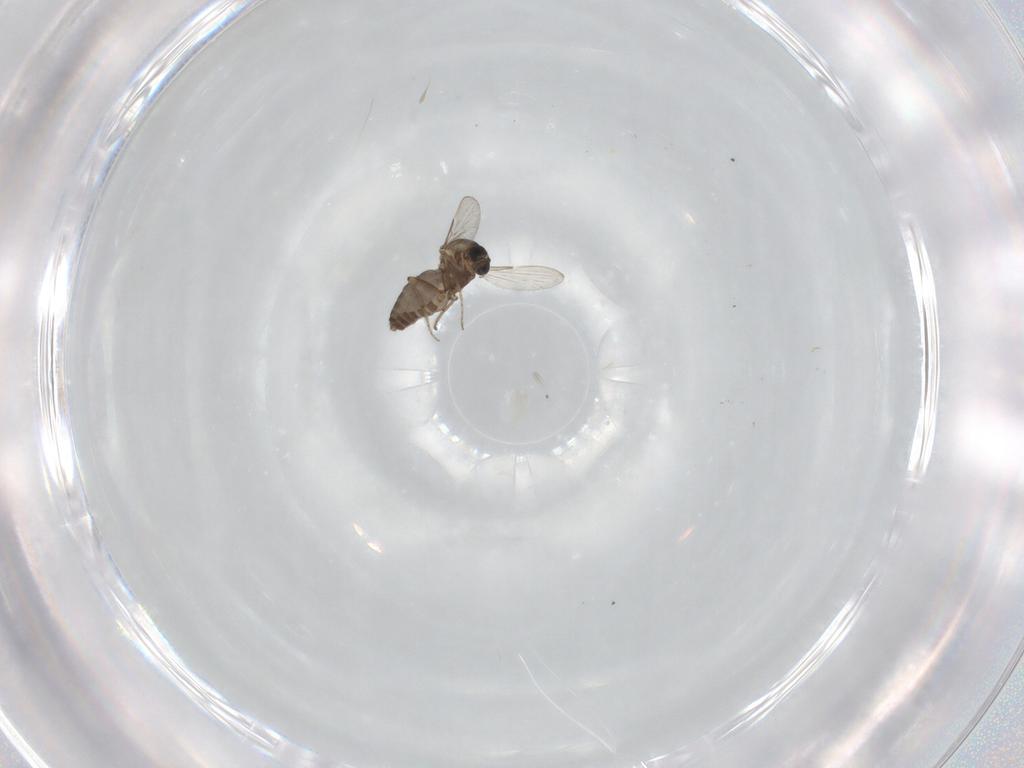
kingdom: Animalia
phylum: Arthropoda
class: Insecta
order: Diptera
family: Ceratopogonidae
